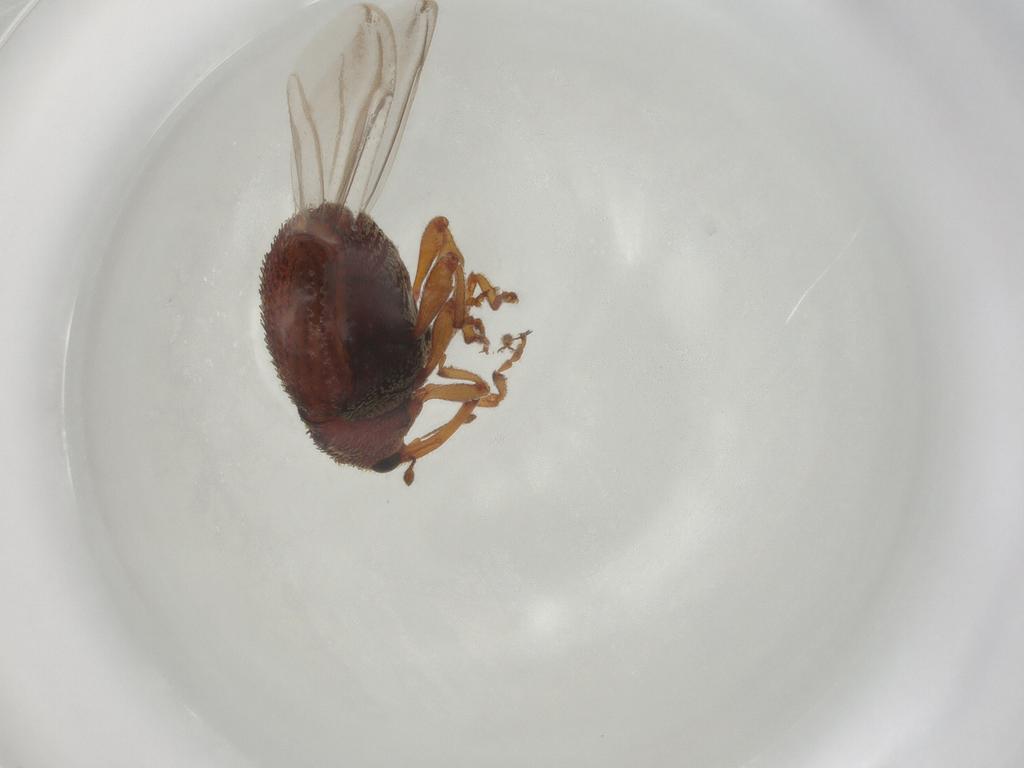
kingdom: Animalia
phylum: Arthropoda
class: Insecta
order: Coleoptera
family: Curculionidae
